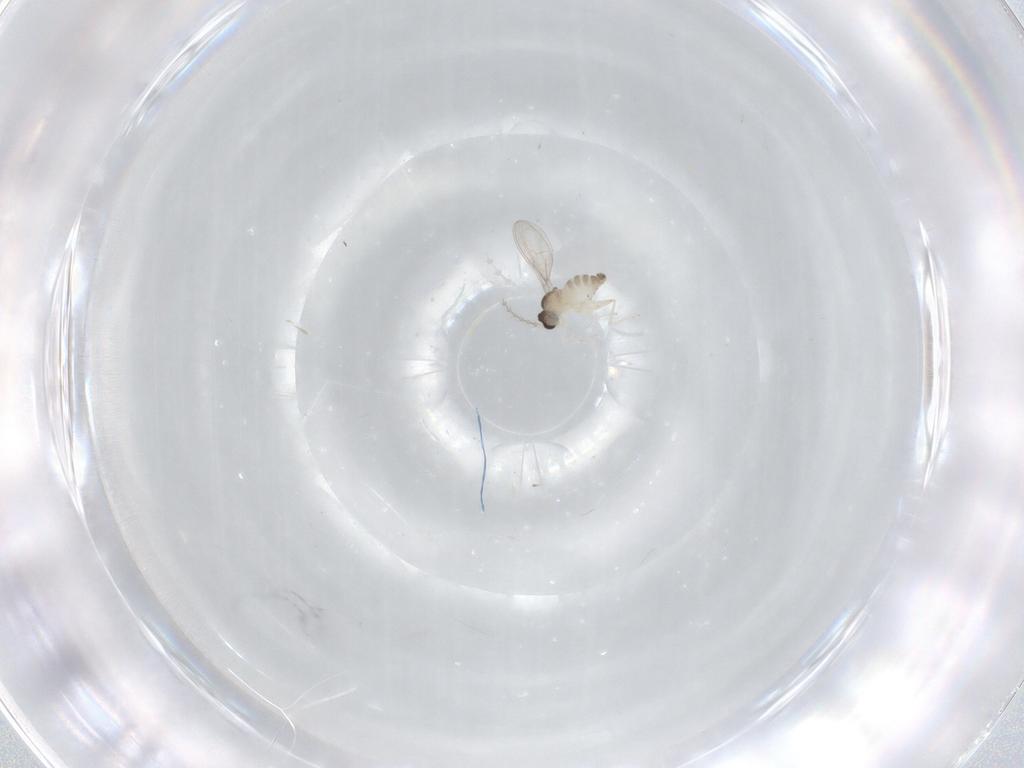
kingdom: Animalia
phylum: Arthropoda
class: Insecta
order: Diptera
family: Cecidomyiidae
